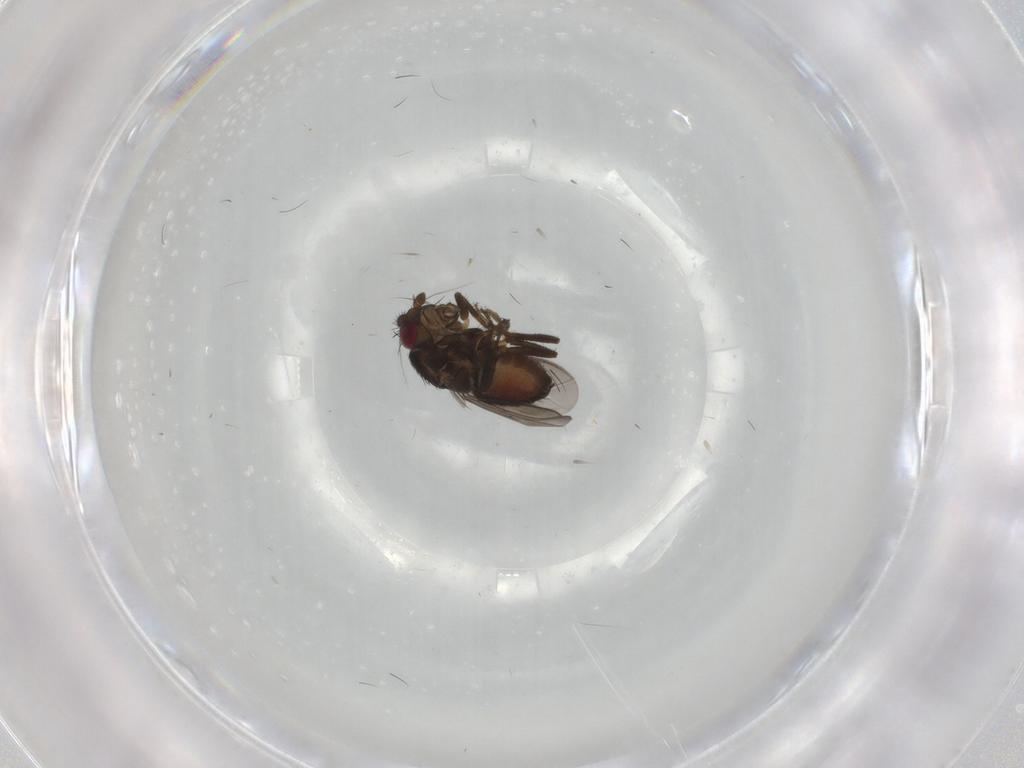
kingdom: Animalia
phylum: Arthropoda
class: Insecta
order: Diptera
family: Sphaeroceridae
